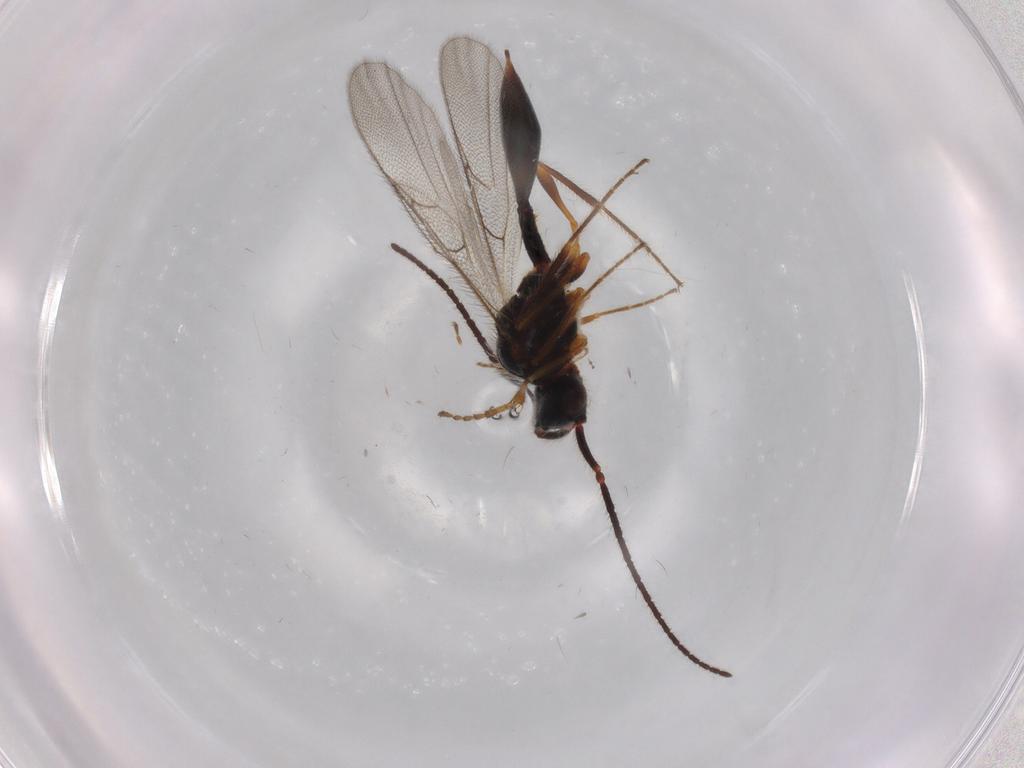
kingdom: Animalia
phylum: Arthropoda
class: Insecta
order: Hymenoptera
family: Diapriidae
